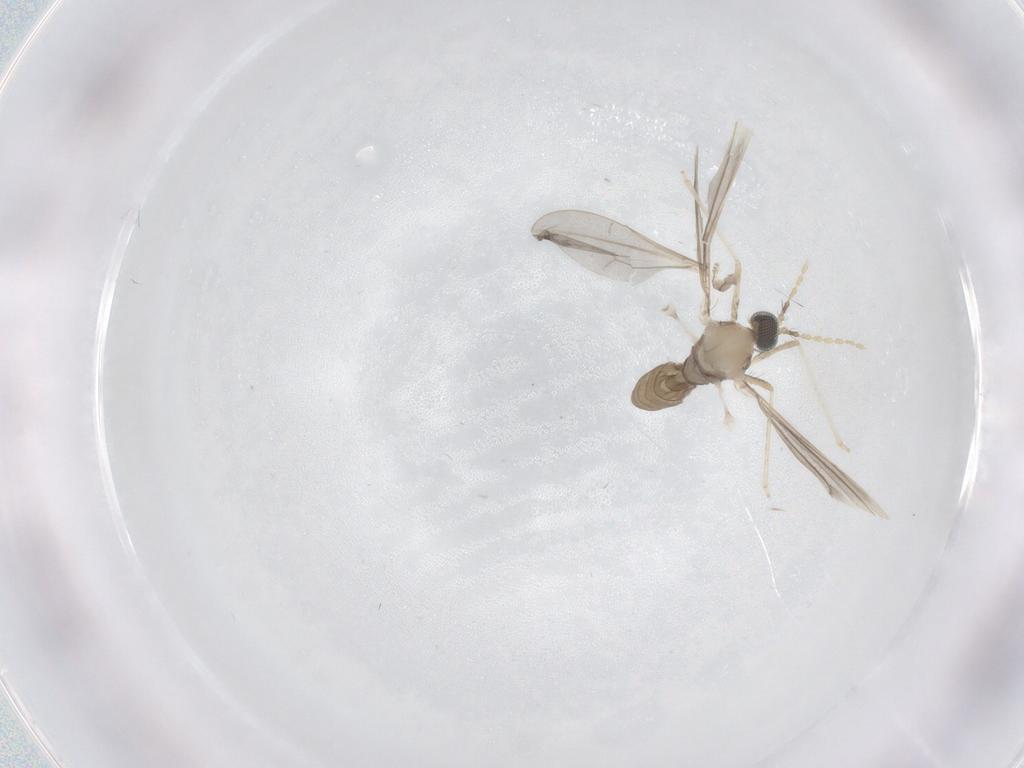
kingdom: Animalia
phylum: Arthropoda
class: Insecta
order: Diptera
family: Cecidomyiidae
